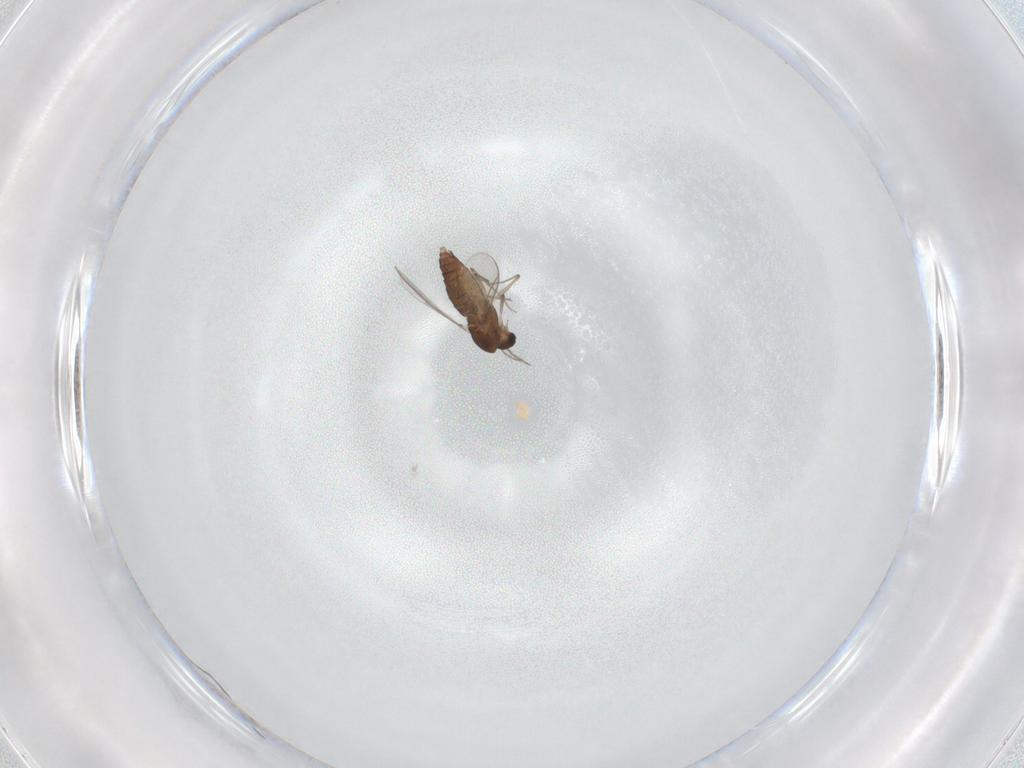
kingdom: Animalia
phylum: Arthropoda
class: Insecta
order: Diptera
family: Chironomidae
